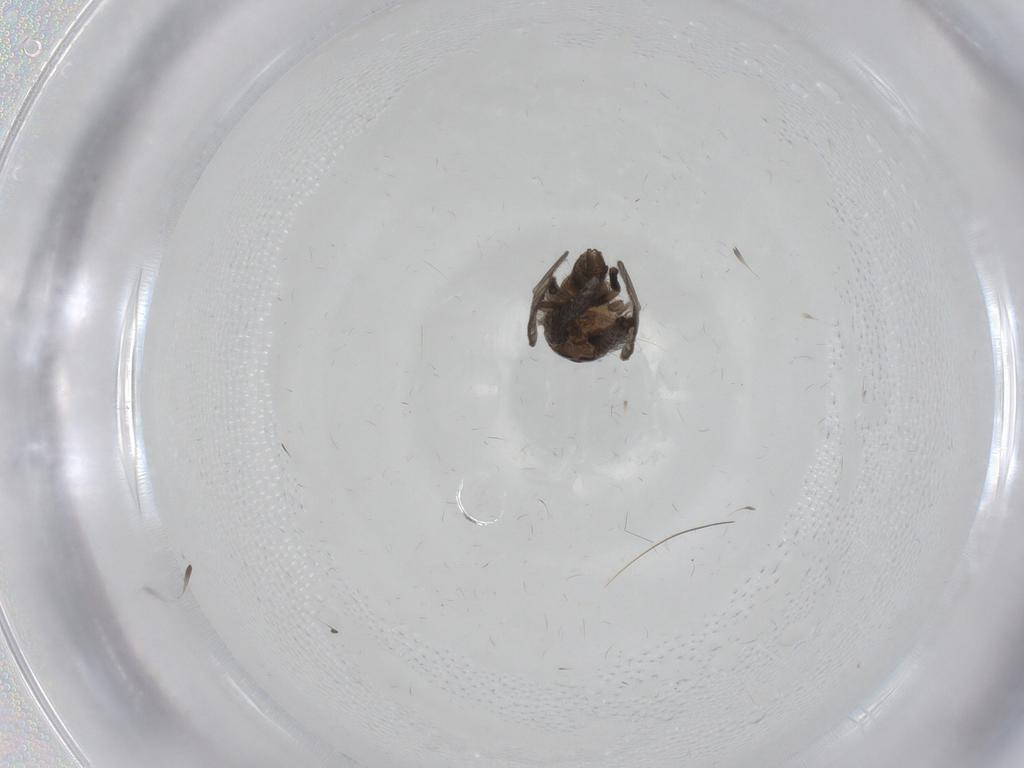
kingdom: Animalia
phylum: Arthropoda
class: Insecta
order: Diptera
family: Psychodidae
